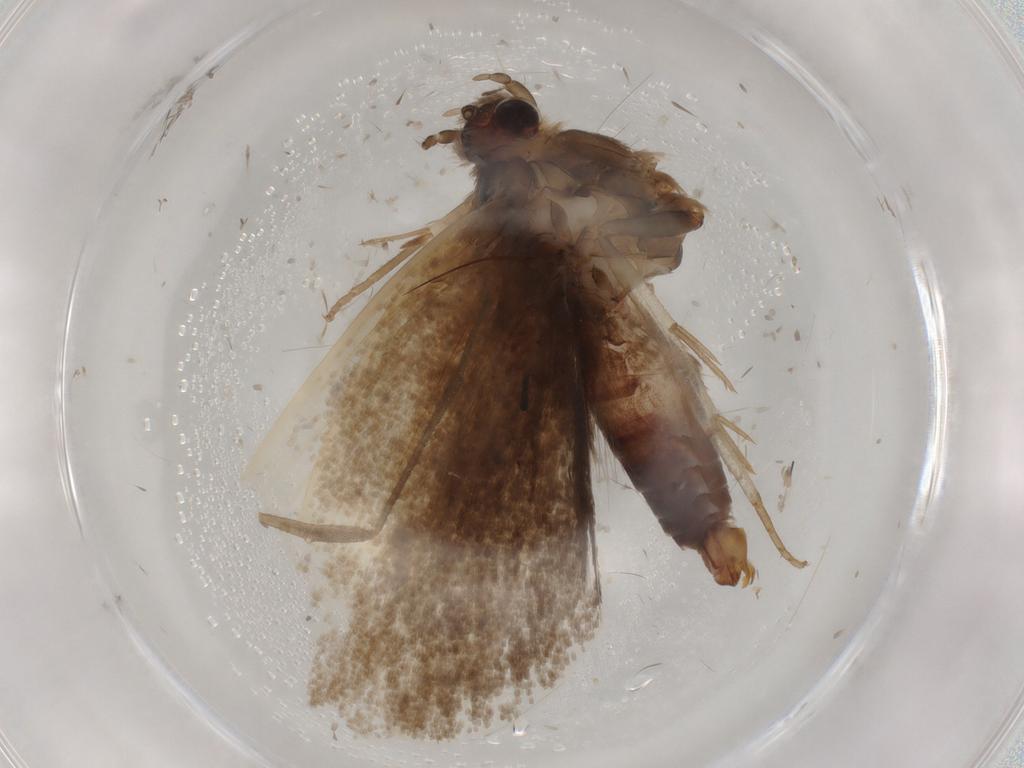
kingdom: Animalia
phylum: Arthropoda
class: Insecta
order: Lepidoptera
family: Tineidae
